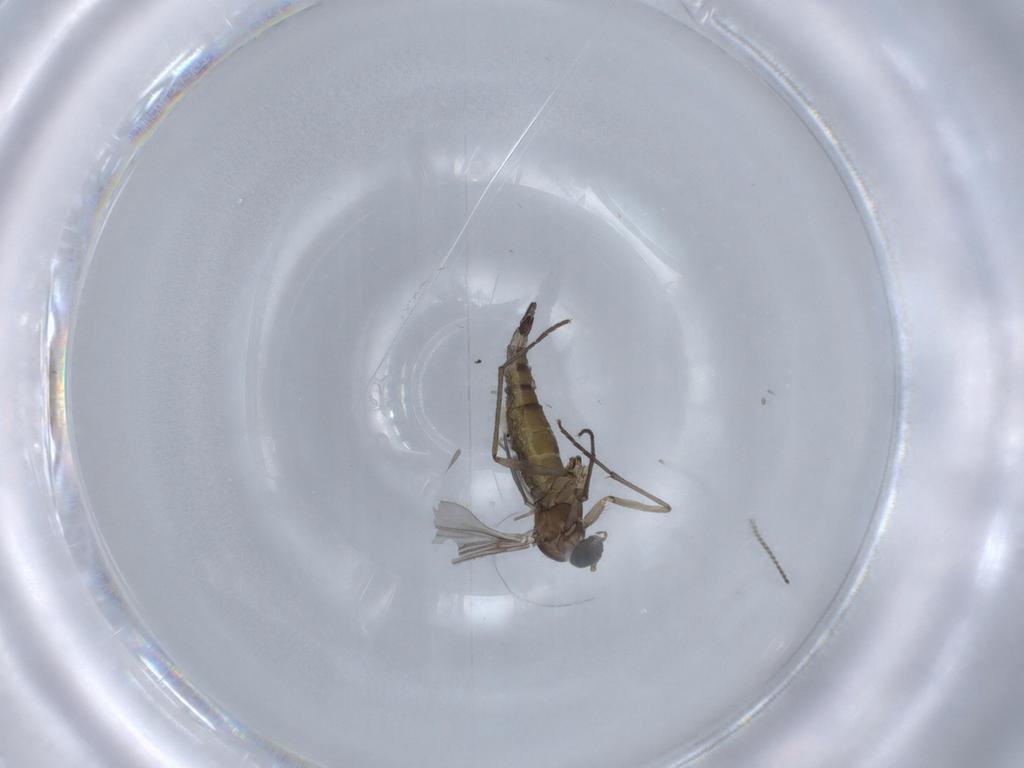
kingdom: Animalia
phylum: Arthropoda
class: Insecta
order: Diptera
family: Sciaridae
